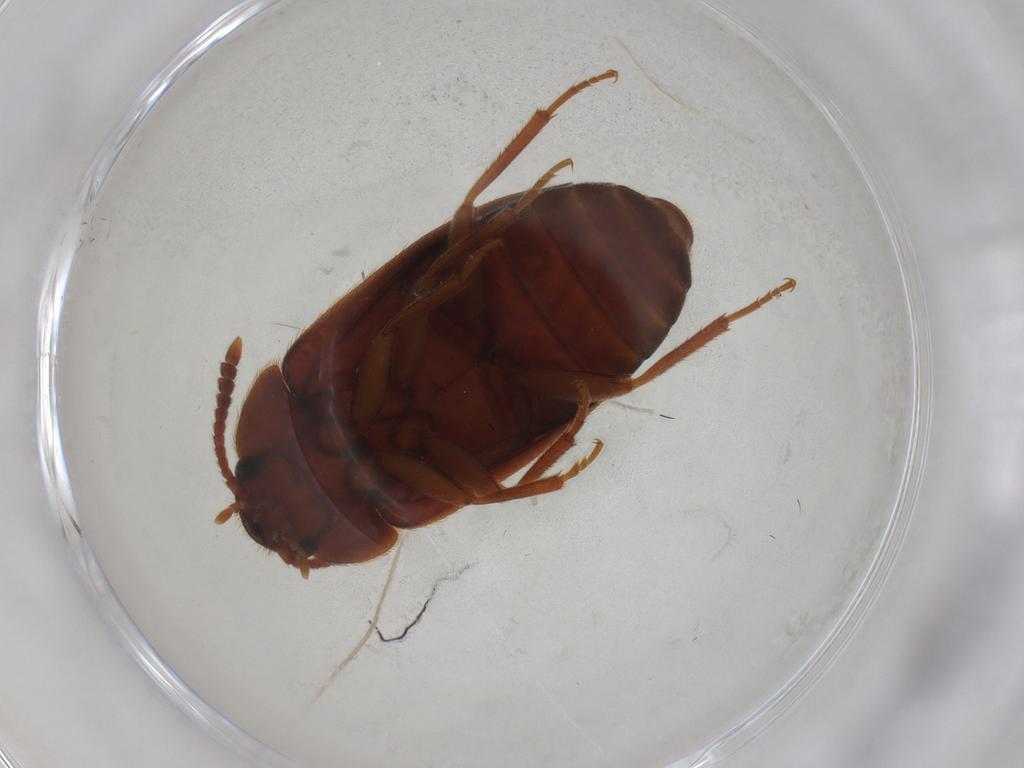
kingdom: Animalia
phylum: Arthropoda
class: Insecta
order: Coleoptera
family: Mycetophagidae
